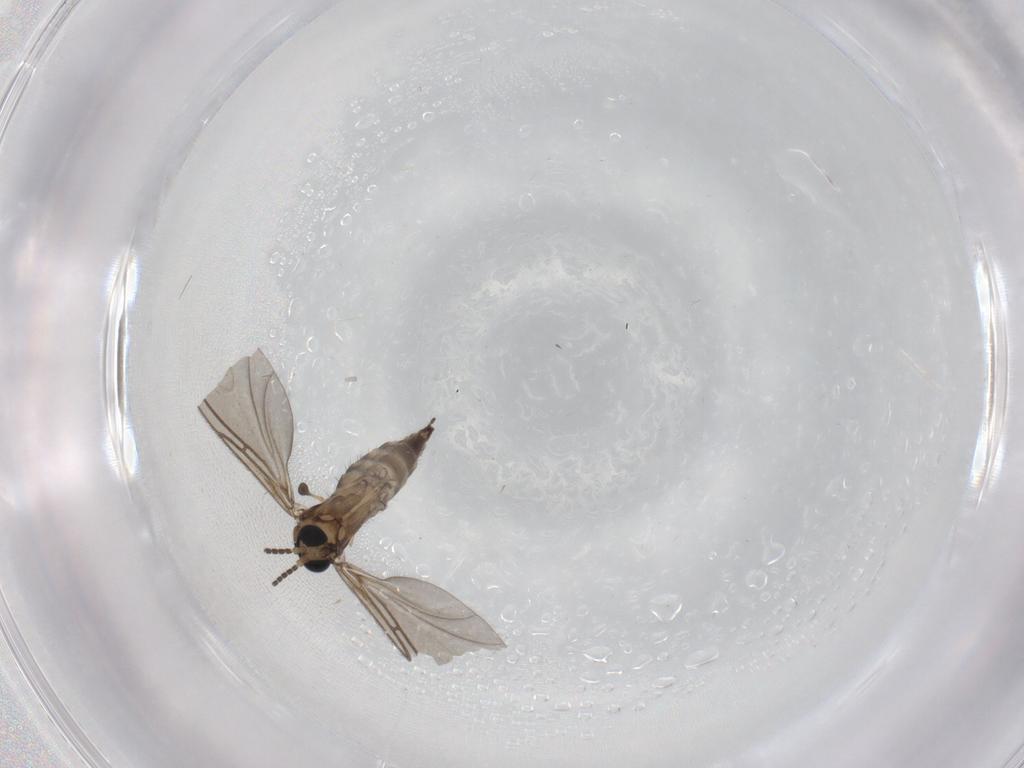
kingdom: Animalia
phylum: Arthropoda
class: Insecta
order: Diptera
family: Sciaridae
